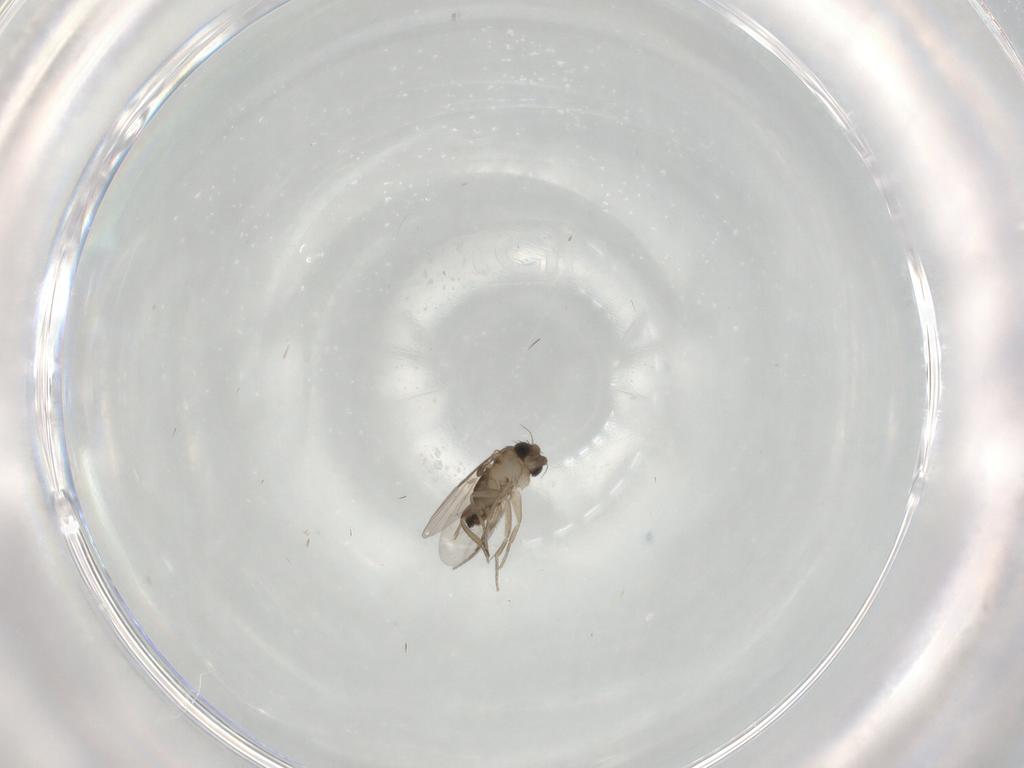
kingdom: Animalia
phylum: Arthropoda
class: Insecta
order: Diptera
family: Phoridae
